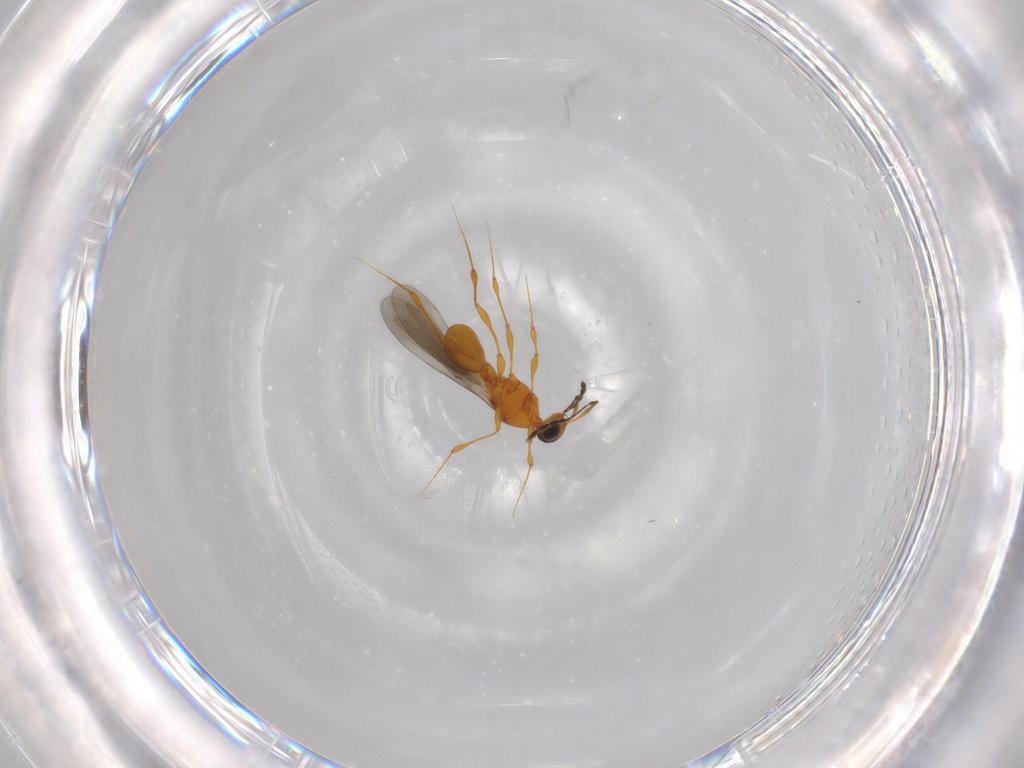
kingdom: Animalia
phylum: Arthropoda
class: Insecta
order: Hymenoptera
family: Platygastridae
